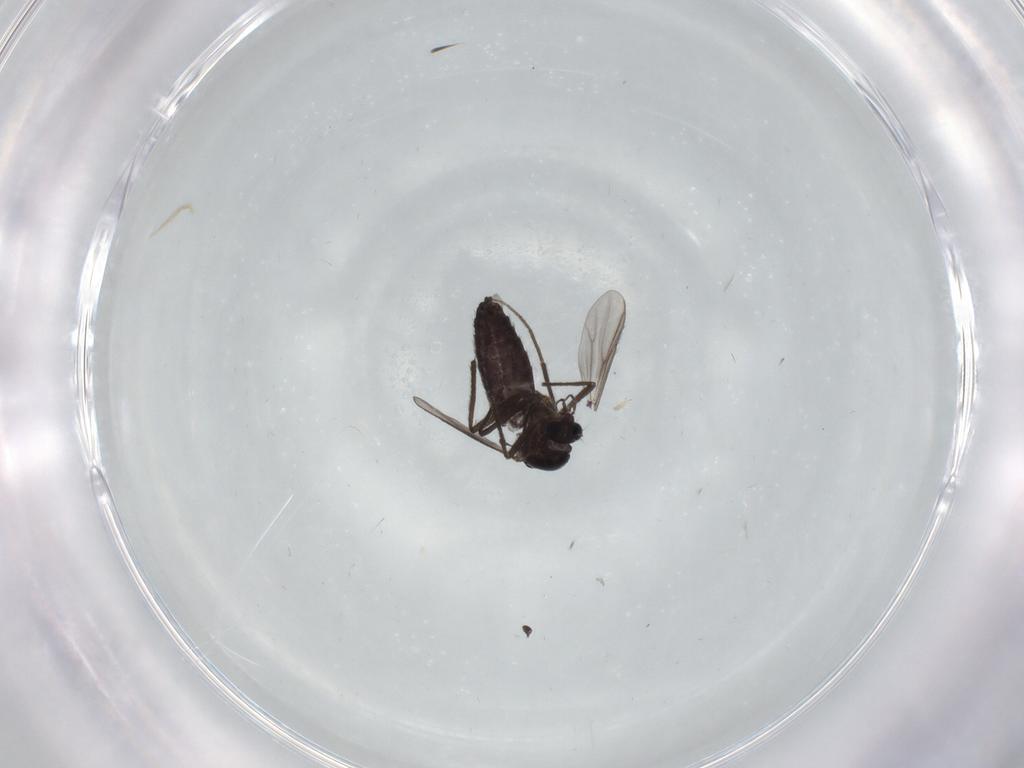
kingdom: Animalia
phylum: Arthropoda
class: Insecta
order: Diptera
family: Chironomidae
